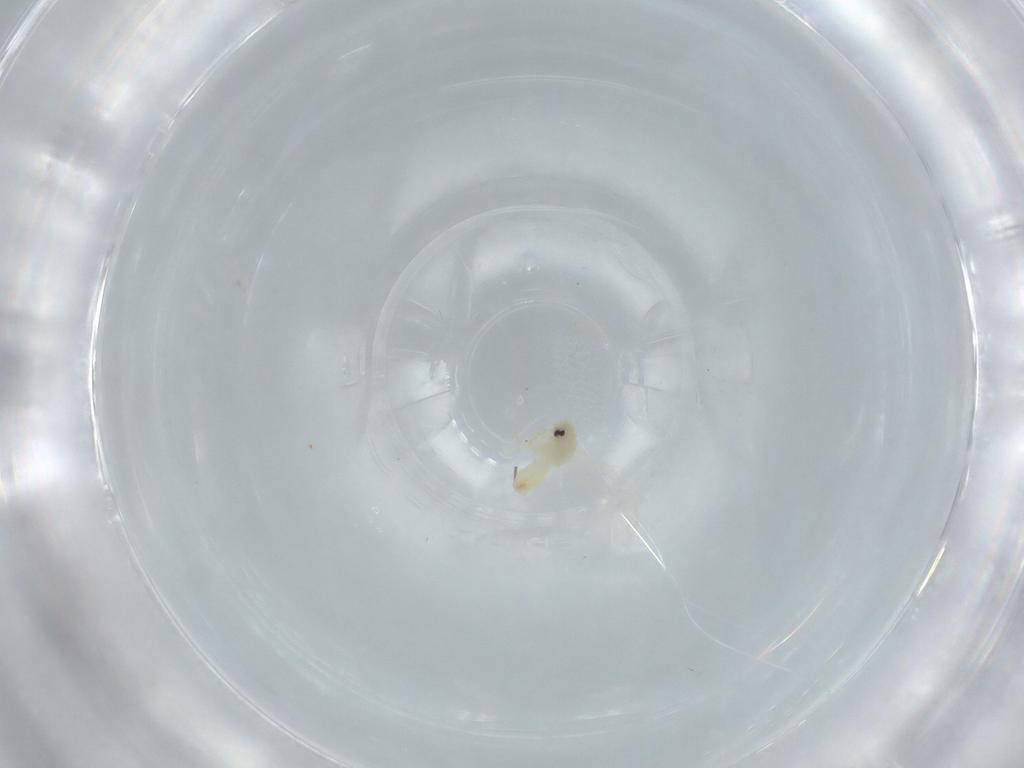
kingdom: Animalia
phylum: Arthropoda
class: Insecta
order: Hemiptera
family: Aleyrodidae
